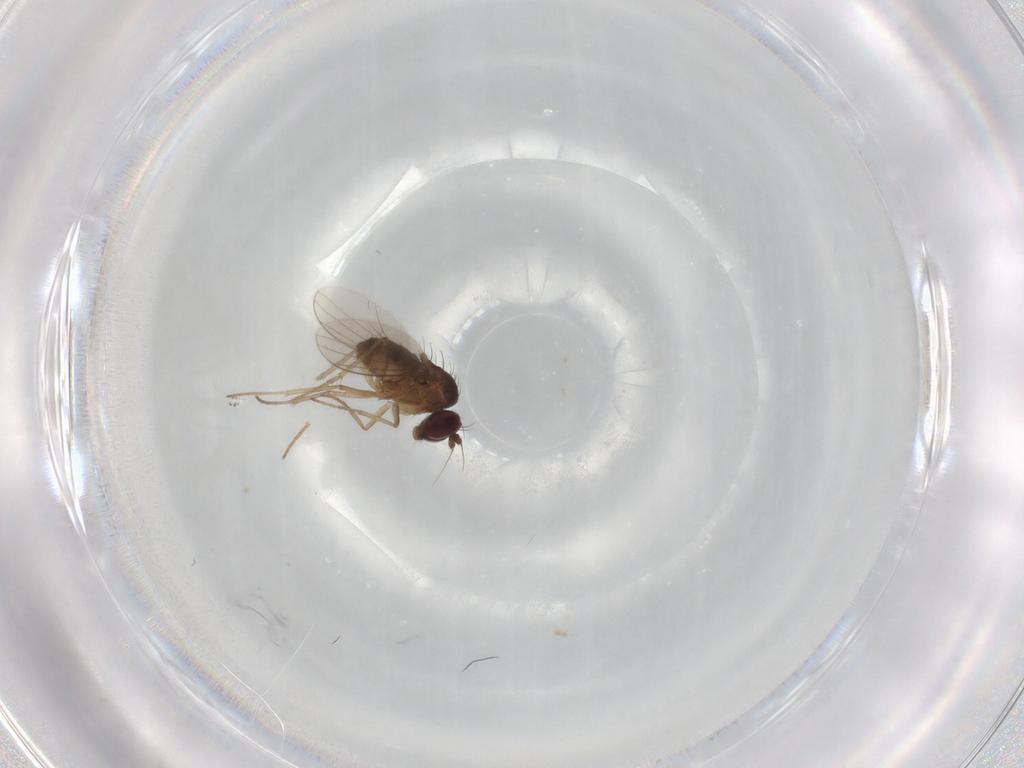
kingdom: Animalia
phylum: Arthropoda
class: Insecta
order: Diptera
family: Dolichopodidae
